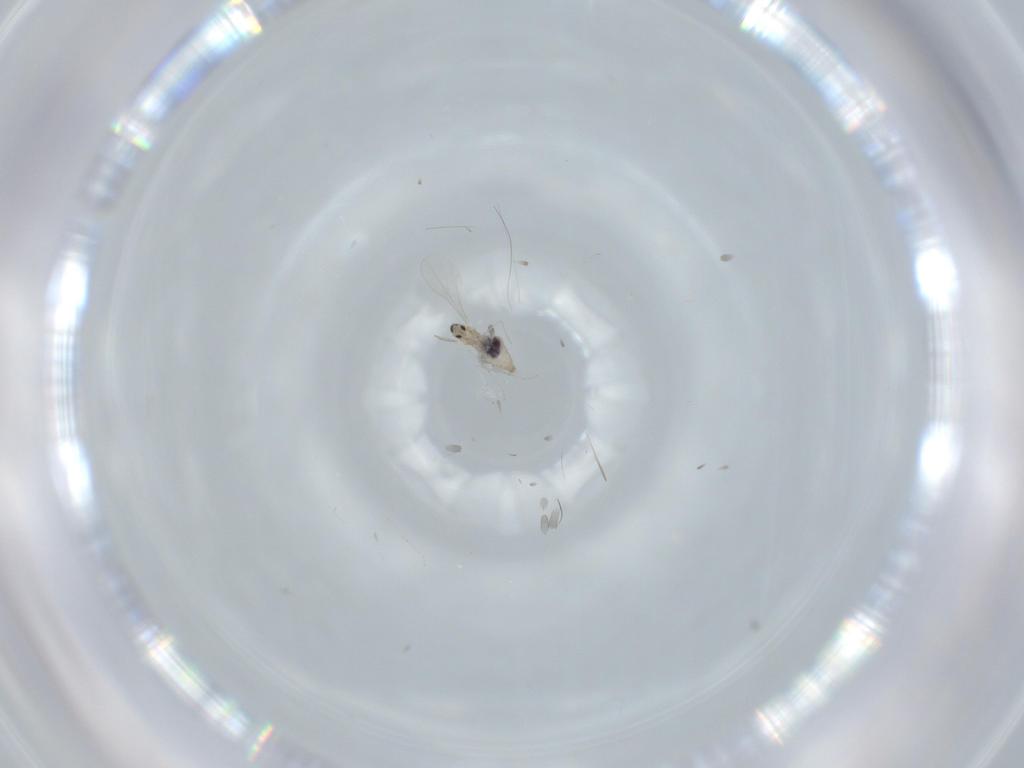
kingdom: Animalia
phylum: Arthropoda
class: Insecta
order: Diptera
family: Cecidomyiidae
